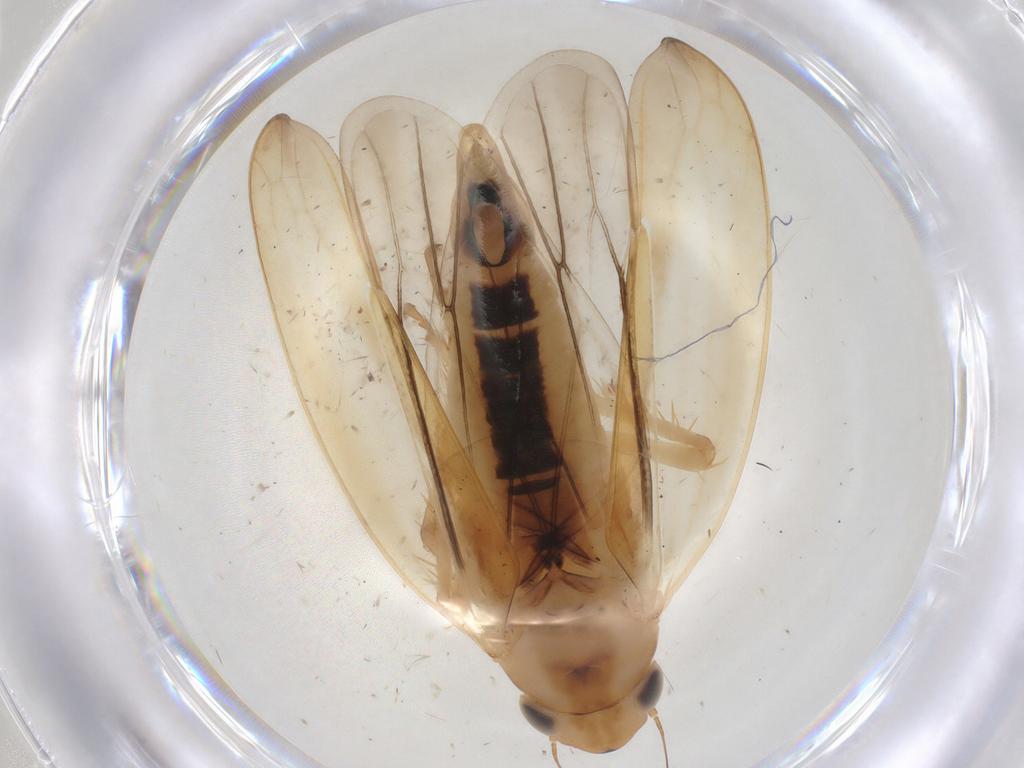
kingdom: Animalia
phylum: Arthropoda
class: Insecta
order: Hemiptera
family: Cicadellidae
